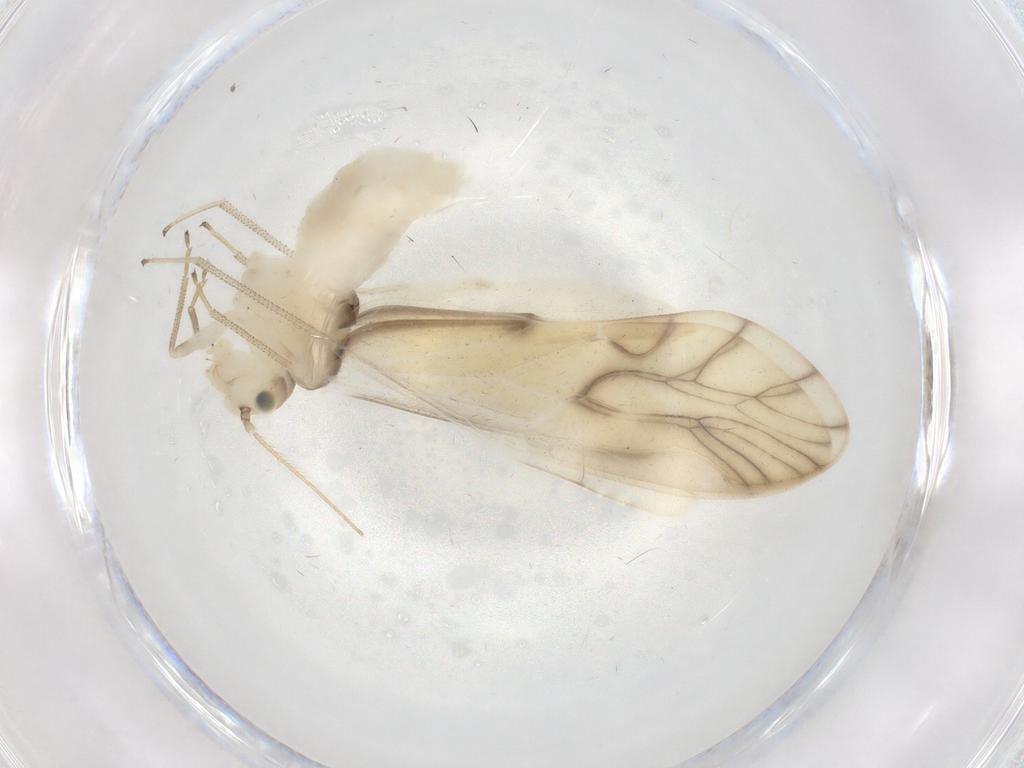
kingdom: Animalia
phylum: Arthropoda
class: Insecta
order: Psocodea
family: Caeciliusidae
